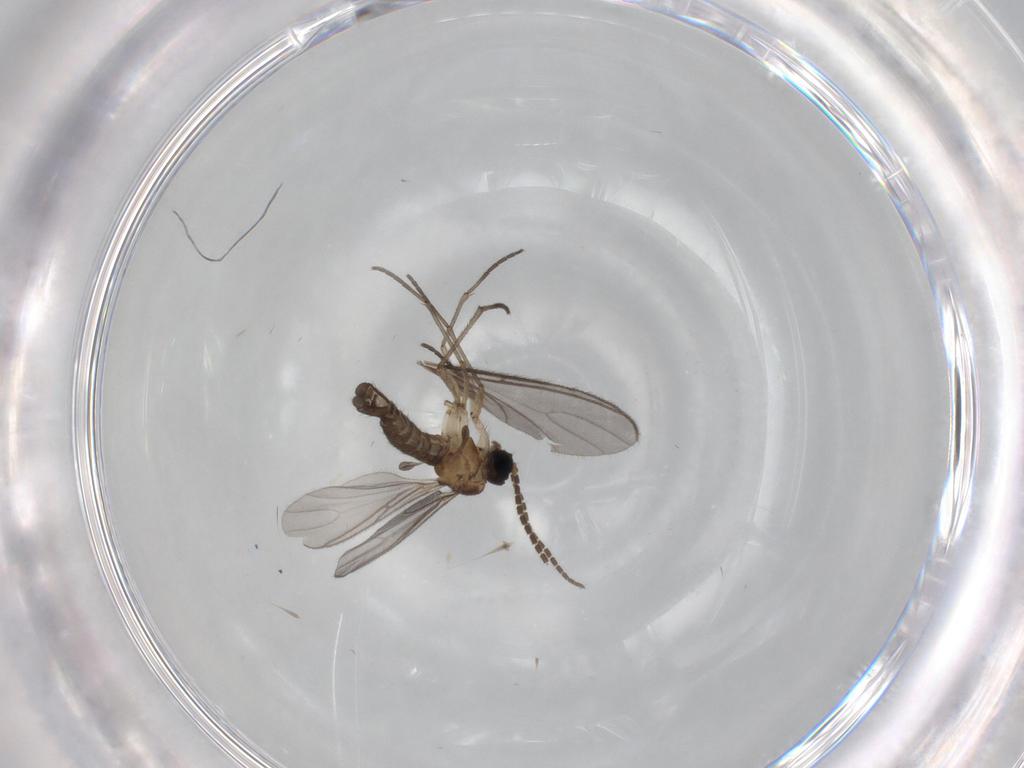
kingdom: Animalia
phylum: Arthropoda
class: Insecta
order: Diptera
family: Sciaridae
